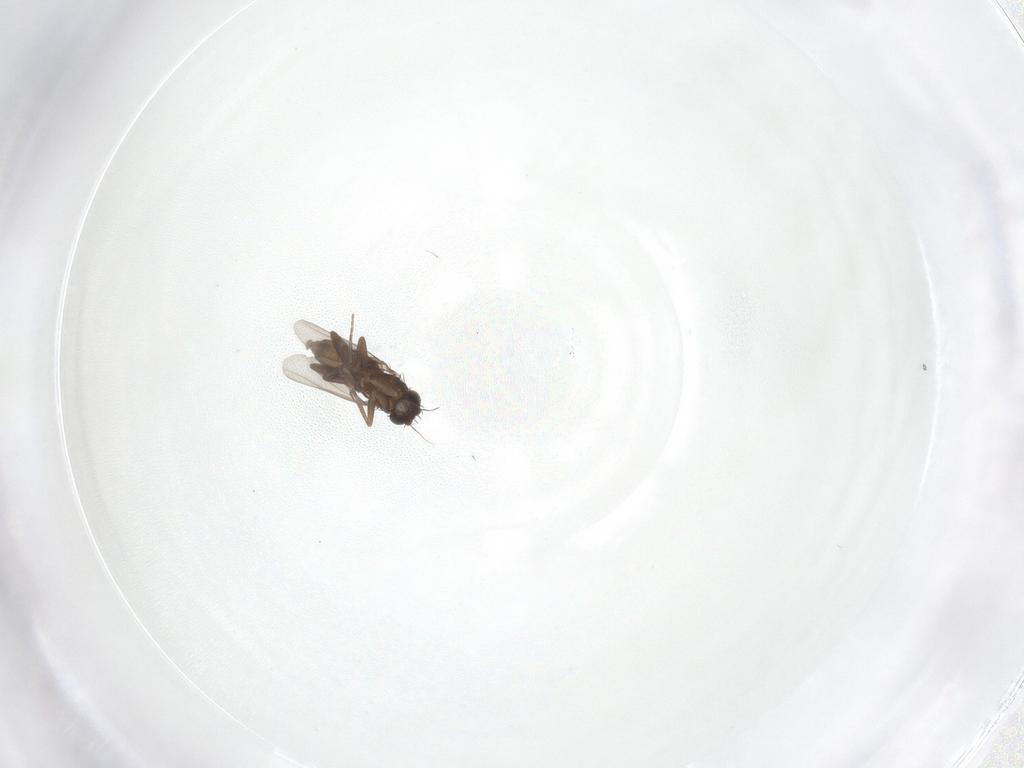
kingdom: Animalia
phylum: Arthropoda
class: Insecta
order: Diptera
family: Phoridae
